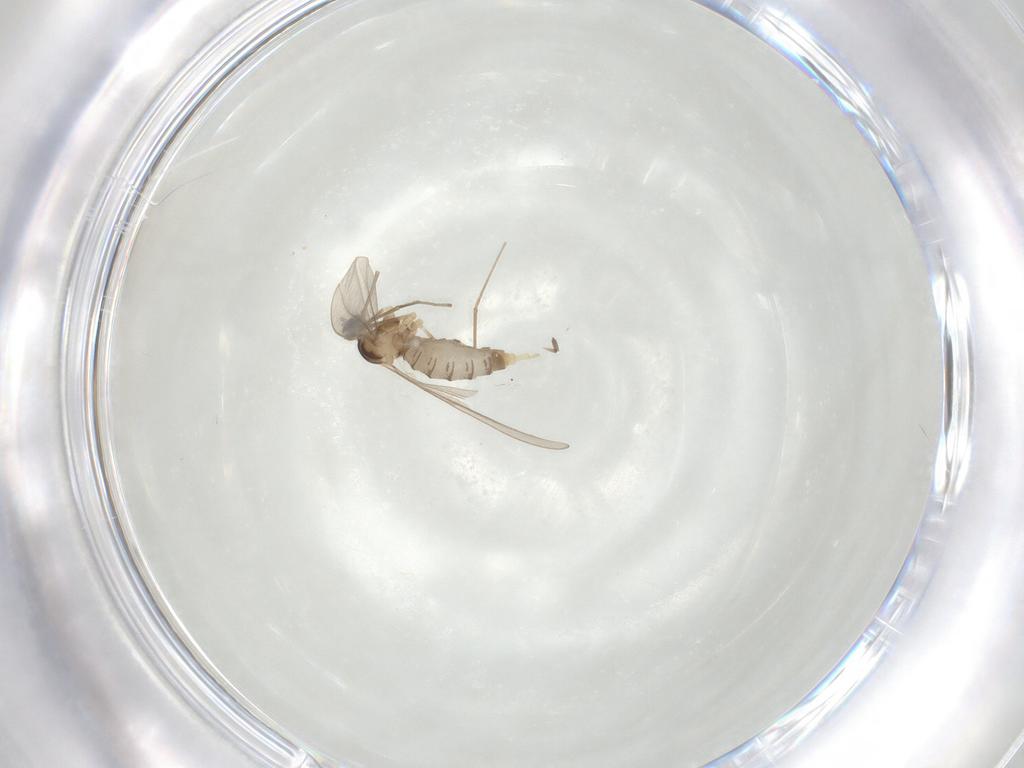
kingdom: Animalia
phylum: Arthropoda
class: Insecta
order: Diptera
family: Cecidomyiidae
